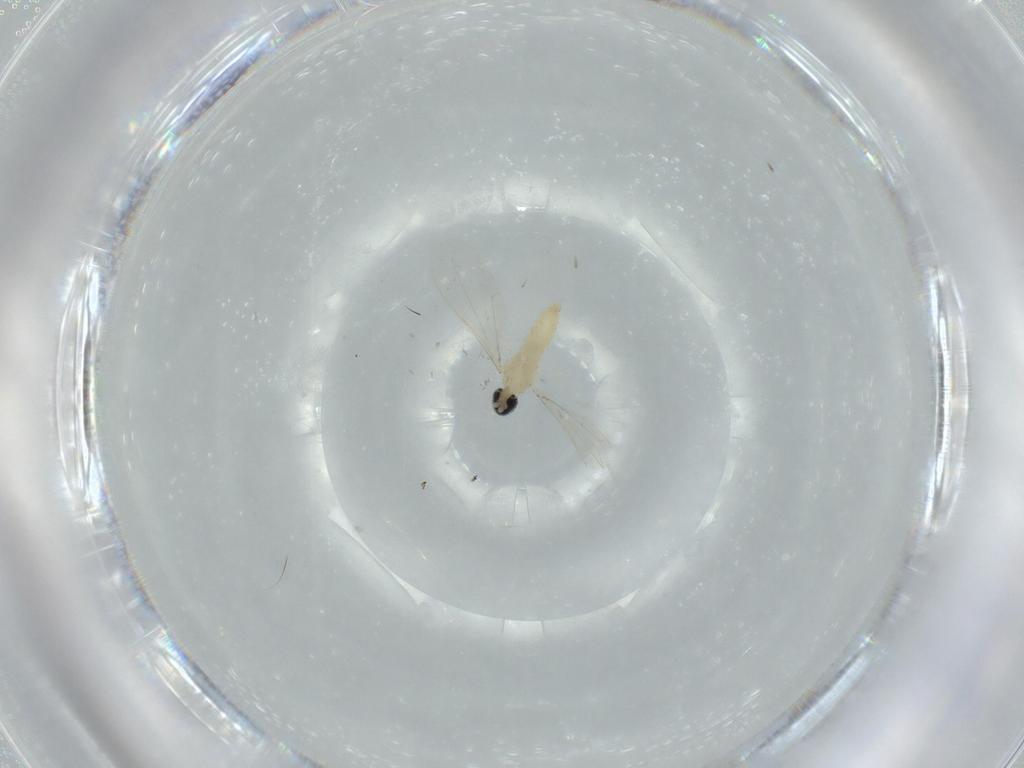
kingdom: Animalia
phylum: Arthropoda
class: Insecta
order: Diptera
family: Cecidomyiidae
